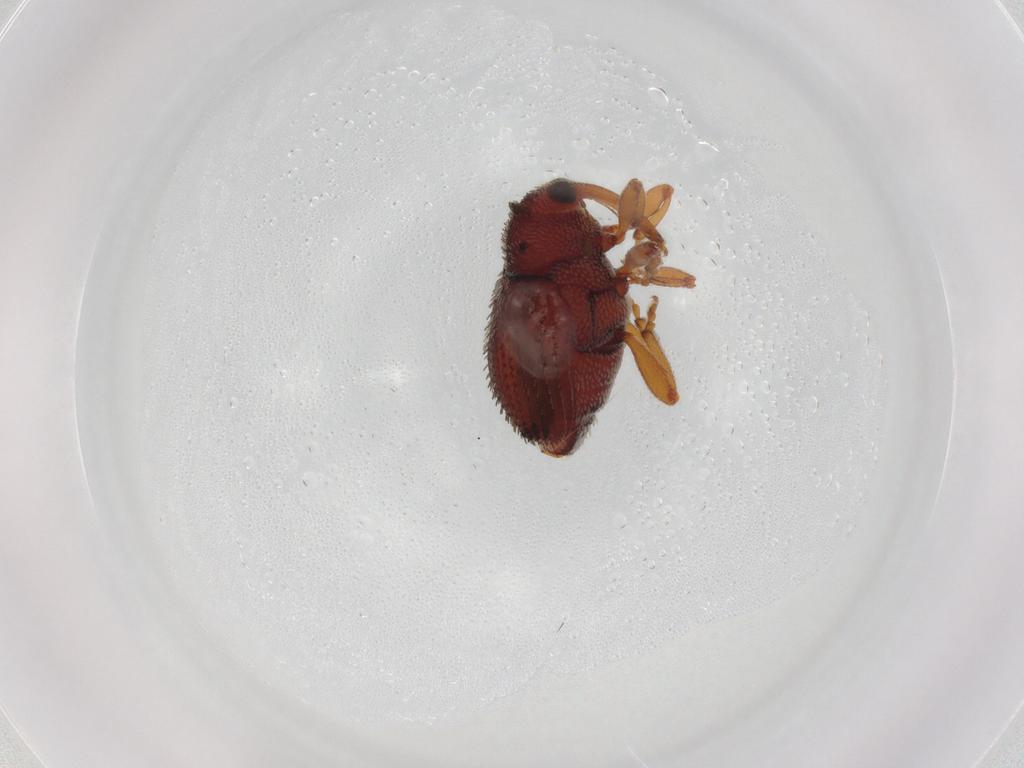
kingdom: Animalia
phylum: Arthropoda
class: Insecta
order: Coleoptera
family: Curculionidae
